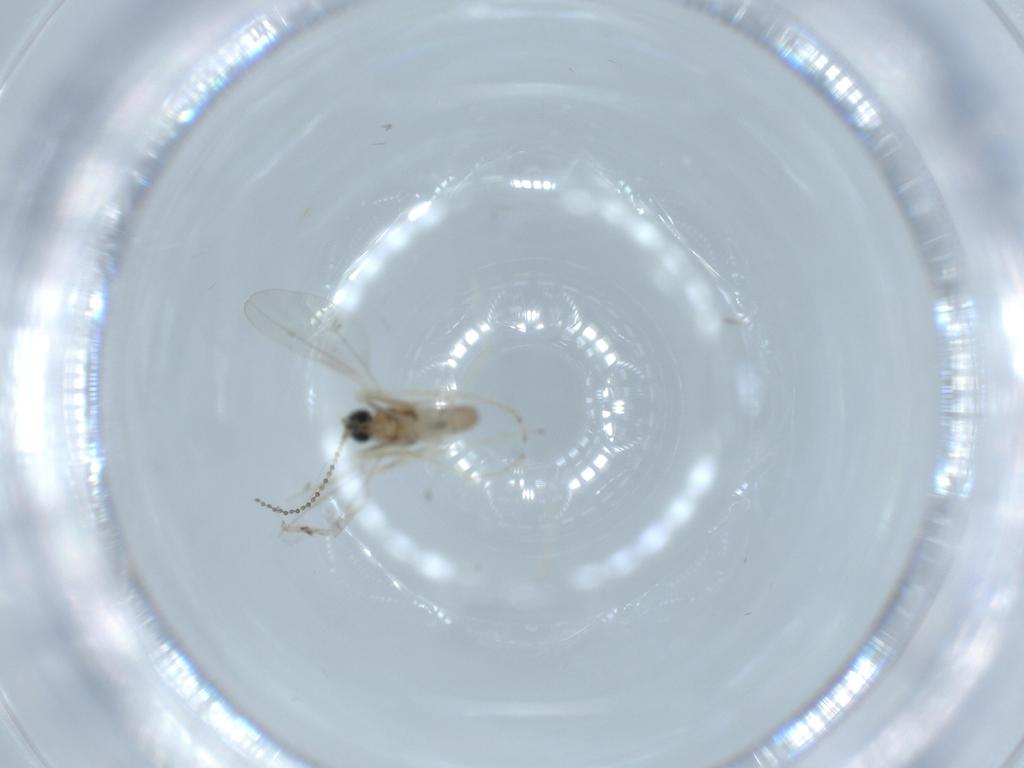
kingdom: Animalia
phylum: Arthropoda
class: Insecta
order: Diptera
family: Cecidomyiidae
